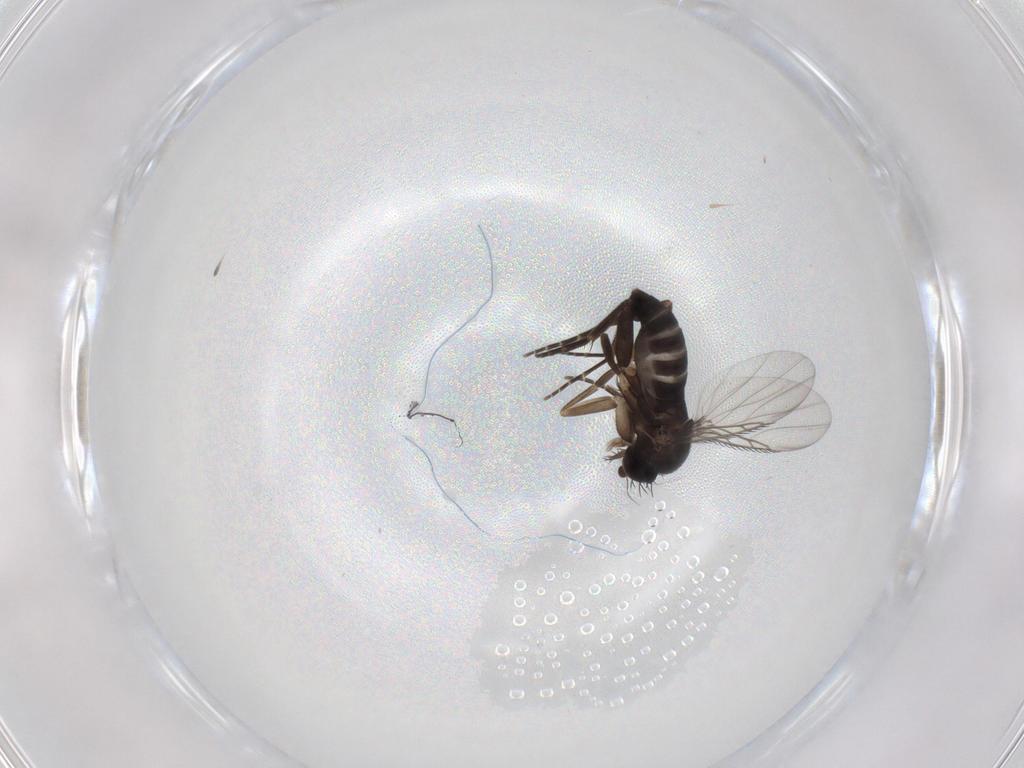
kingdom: Animalia
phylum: Arthropoda
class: Insecta
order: Diptera
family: Phoridae
